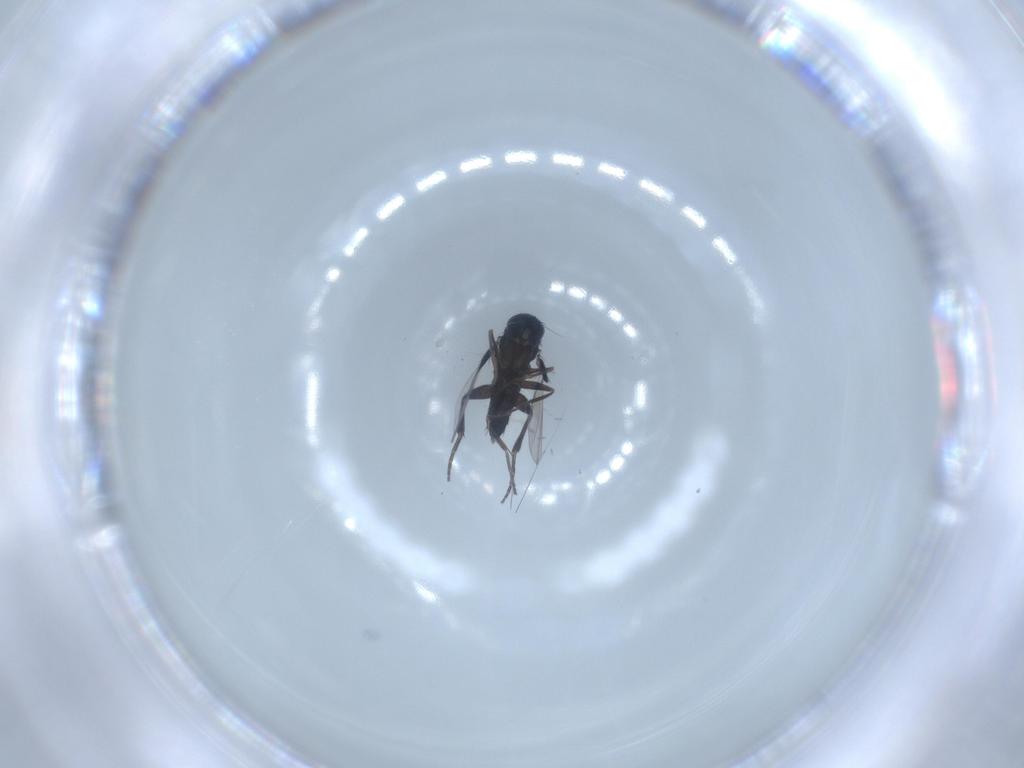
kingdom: Animalia
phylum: Arthropoda
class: Insecta
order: Diptera
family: Phoridae
